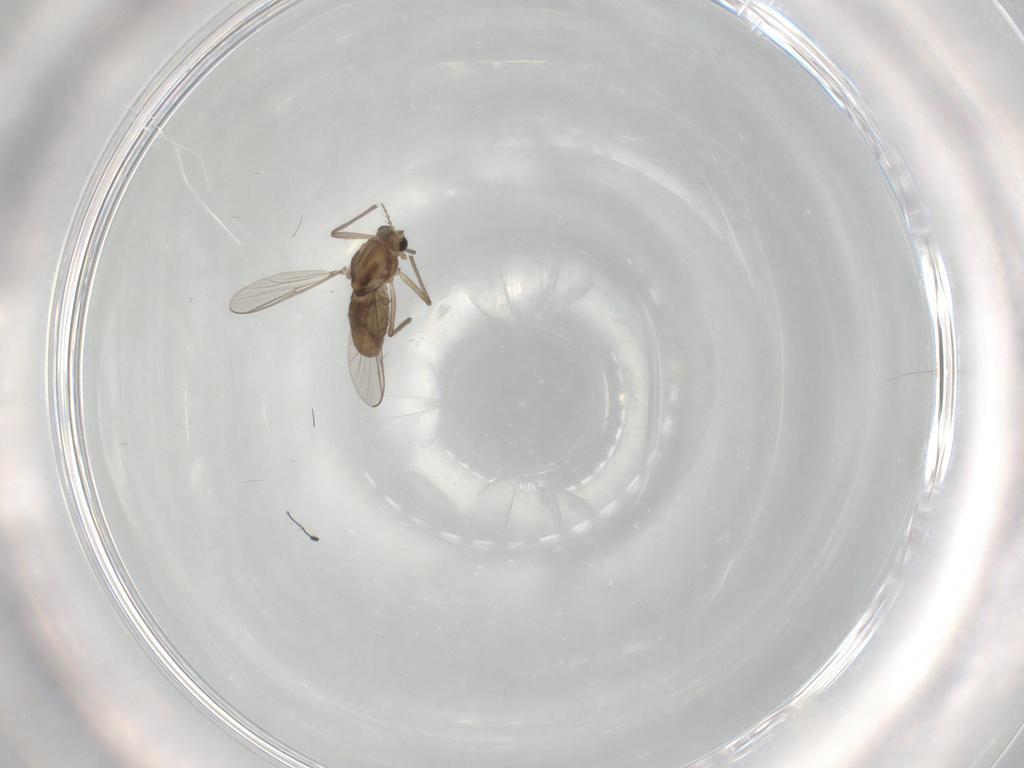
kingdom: Animalia
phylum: Arthropoda
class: Insecta
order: Diptera
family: Chironomidae
